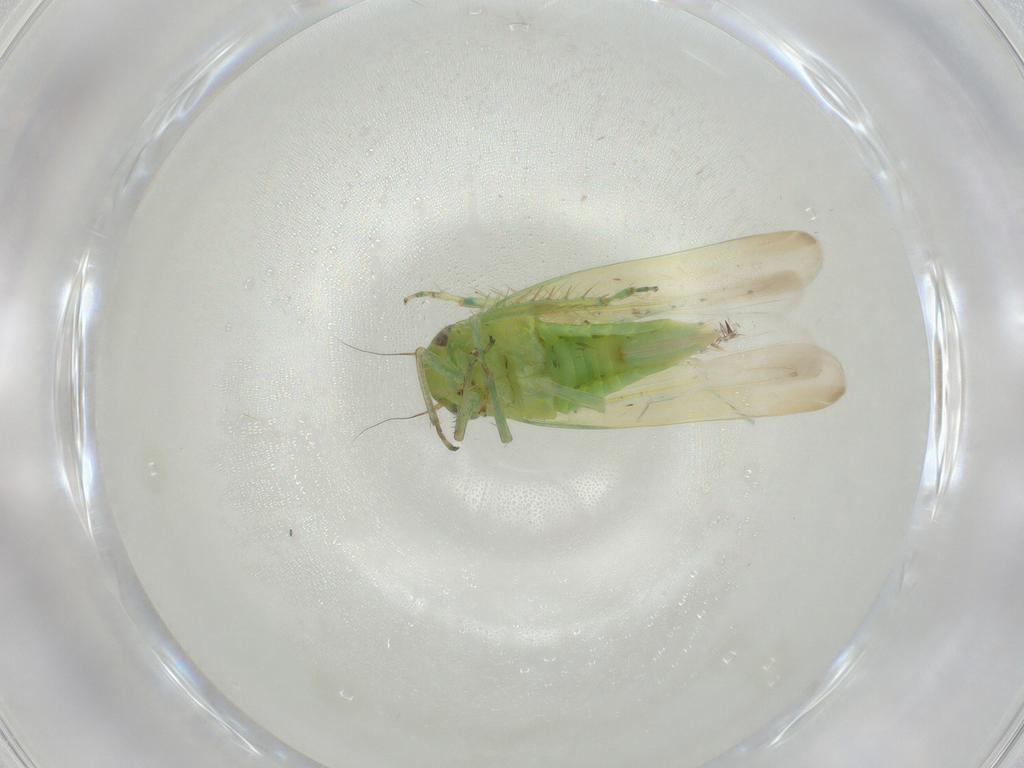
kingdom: Animalia
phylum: Arthropoda
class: Insecta
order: Hemiptera
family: Cicadellidae
